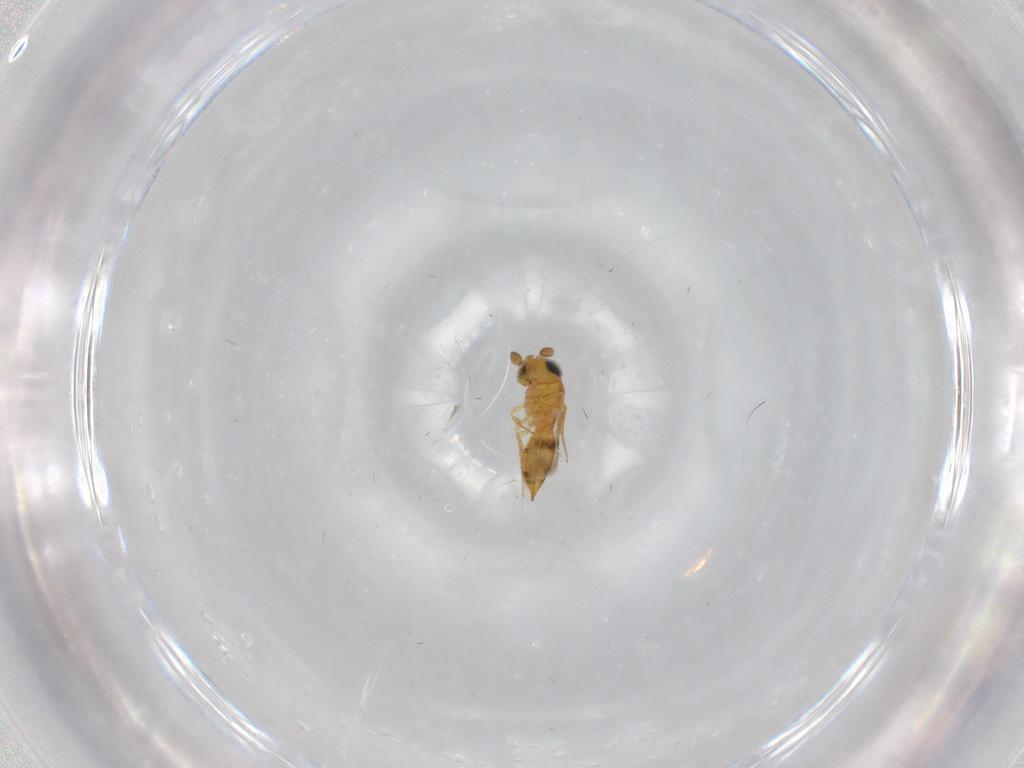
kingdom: Animalia
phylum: Arthropoda
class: Insecta
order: Hymenoptera
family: Scelionidae
